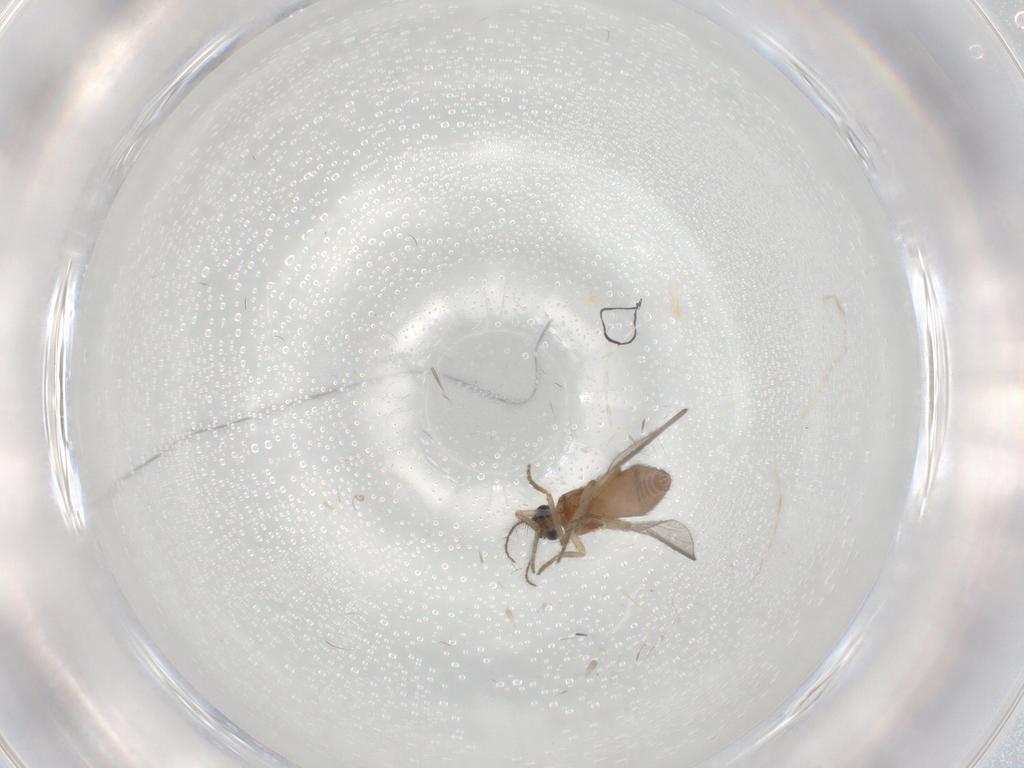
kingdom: Animalia
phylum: Arthropoda
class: Insecta
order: Diptera
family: Ceratopogonidae
